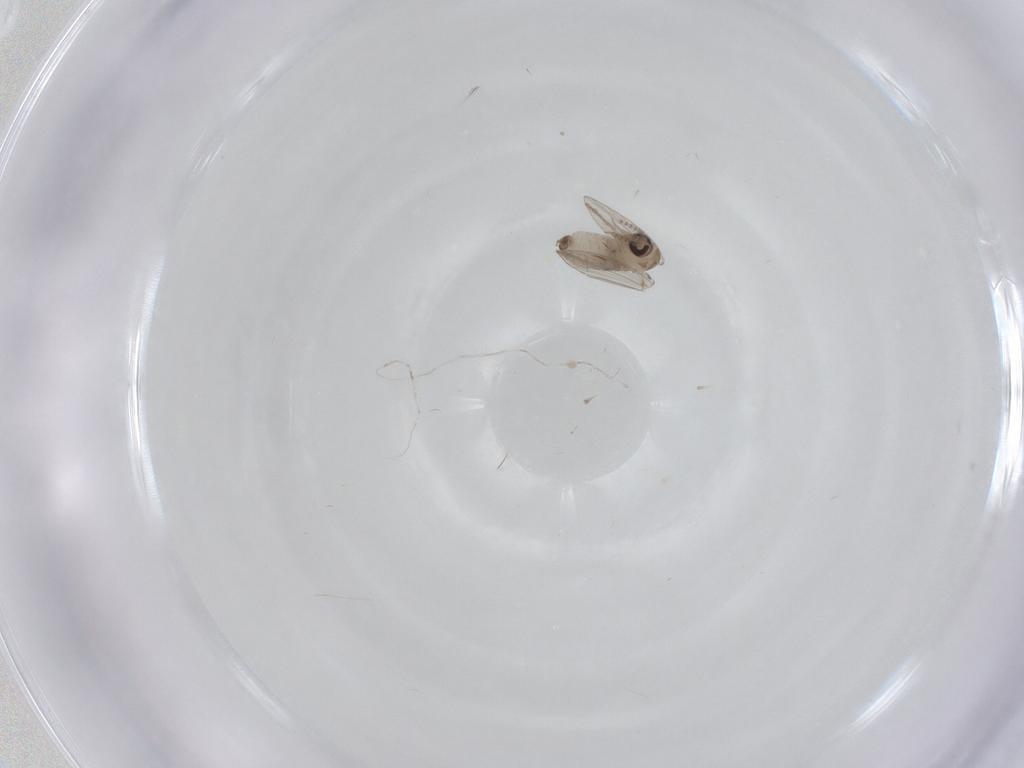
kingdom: Animalia
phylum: Arthropoda
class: Insecta
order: Diptera
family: Psychodidae
